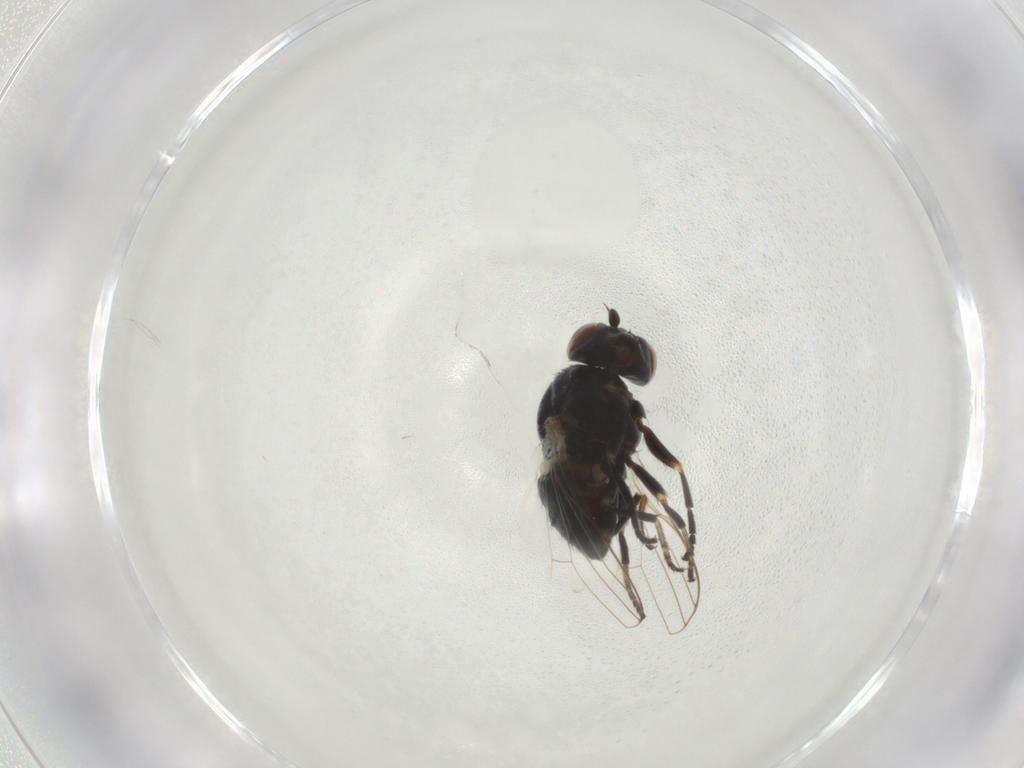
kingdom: Animalia
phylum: Arthropoda
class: Insecta
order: Diptera
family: Chamaemyiidae
